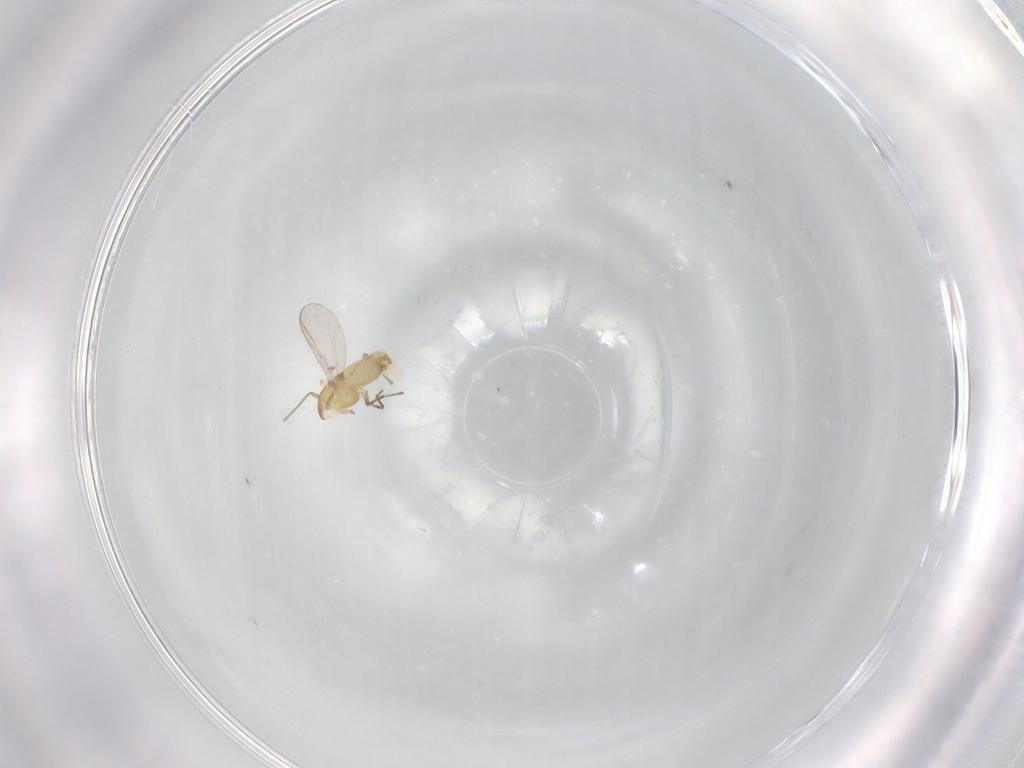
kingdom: Animalia
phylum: Arthropoda
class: Insecta
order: Diptera
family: Chironomidae
